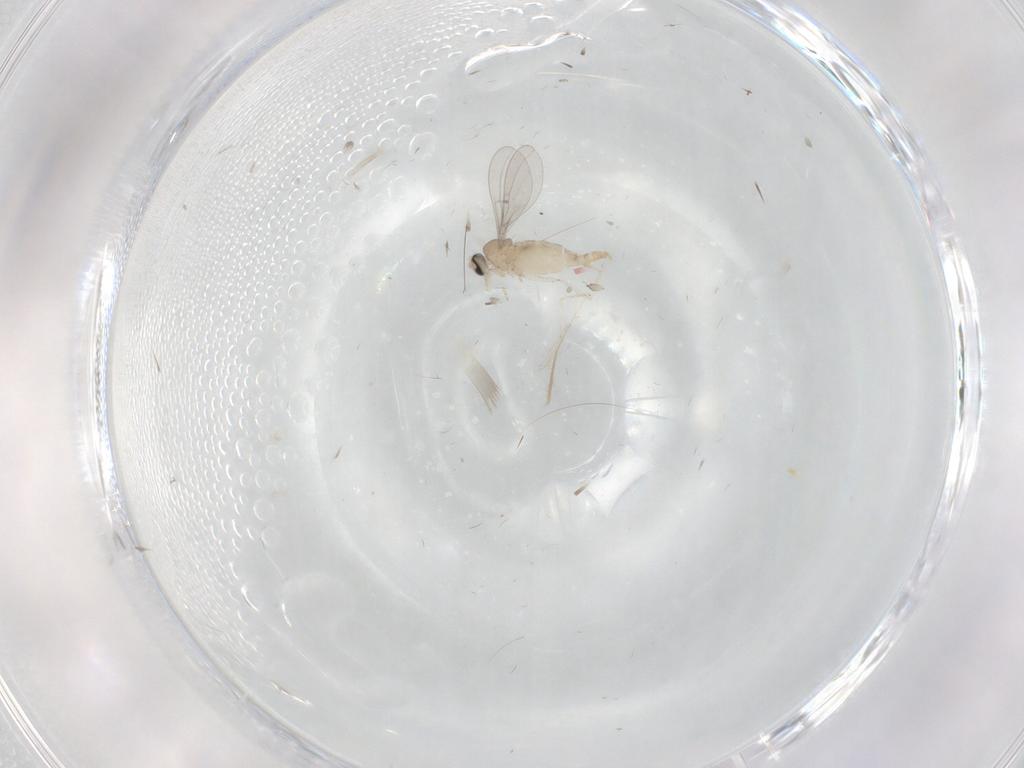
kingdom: Animalia
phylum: Arthropoda
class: Insecta
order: Diptera
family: Cecidomyiidae
